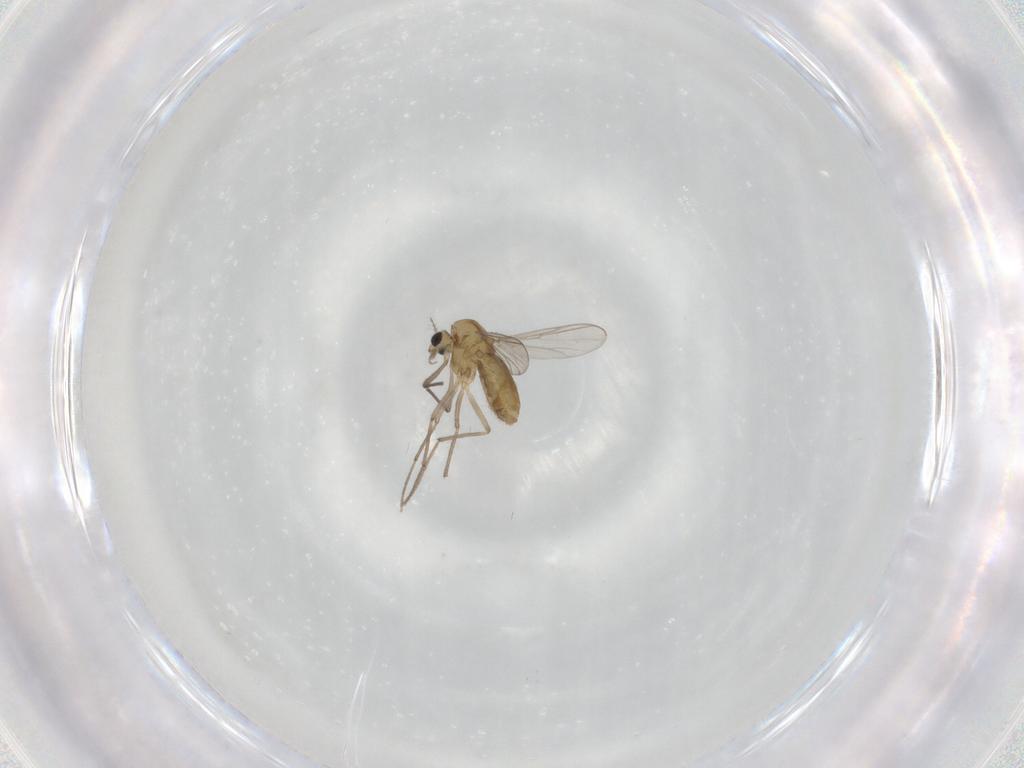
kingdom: Animalia
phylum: Arthropoda
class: Insecta
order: Diptera
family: Chironomidae
